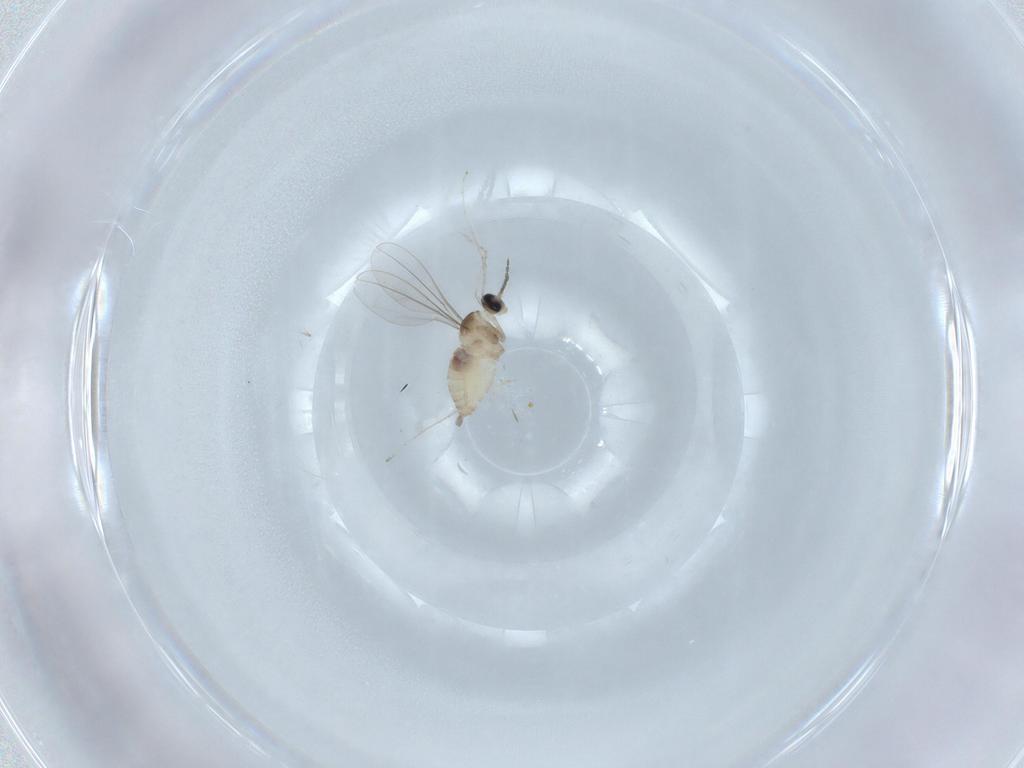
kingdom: Animalia
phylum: Arthropoda
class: Insecta
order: Diptera
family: Cecidomyiidae
